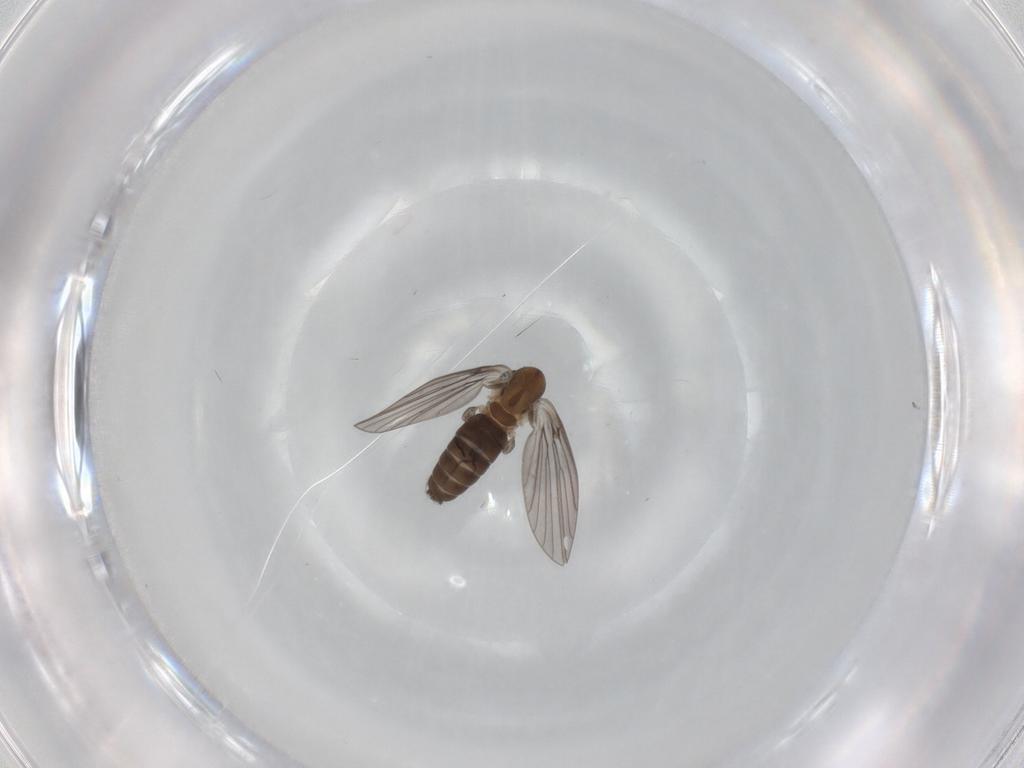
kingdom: Animalia
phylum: Arthropoda
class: Insecta
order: Diptera
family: Psychodidae
